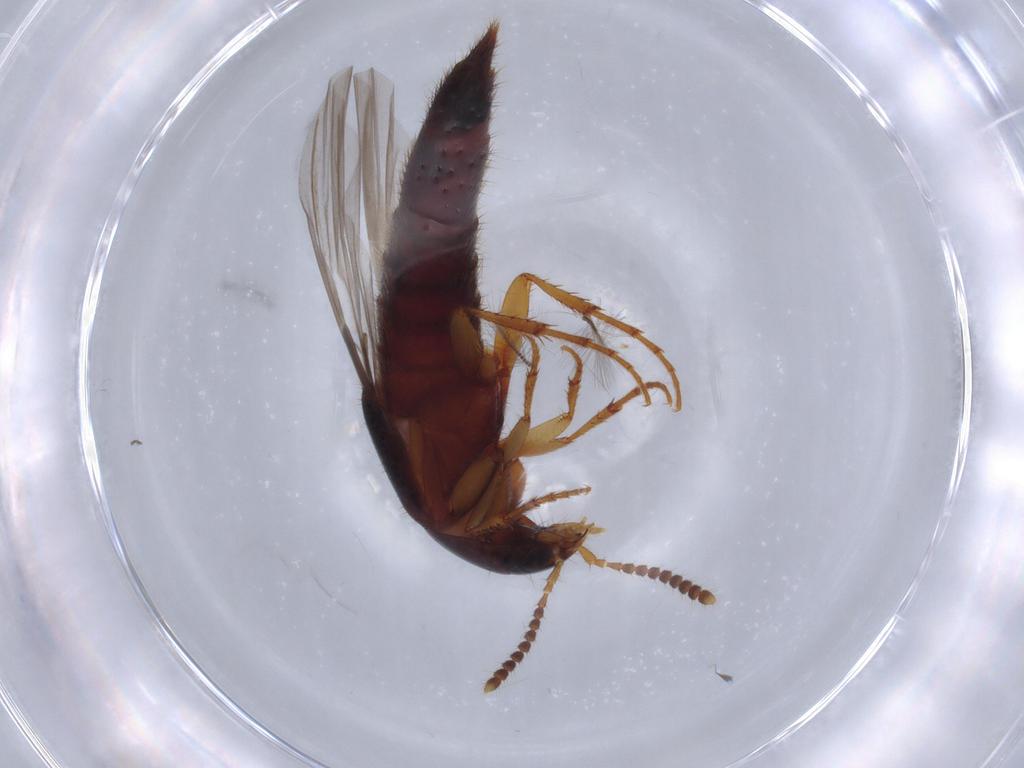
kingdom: Animalia
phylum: Arthropoda
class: Insecta
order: Coleoptera
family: Staphylinidae
